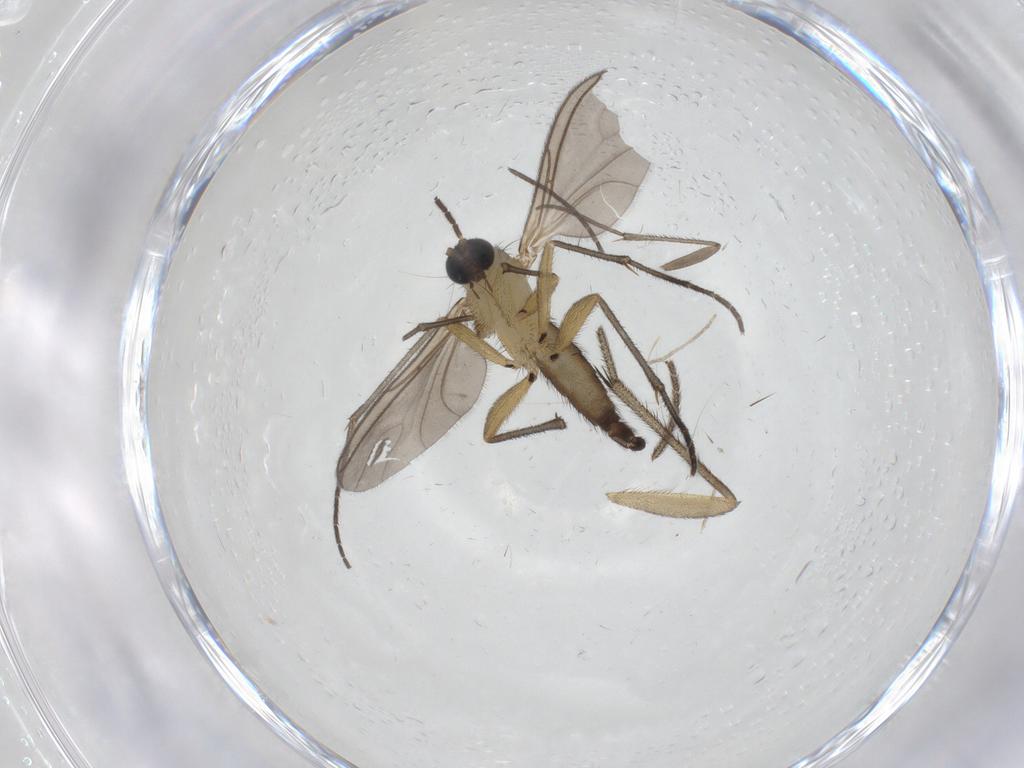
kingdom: Animalia
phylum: Arthropoda
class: Insecta
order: Diptera
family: Sciaridae
